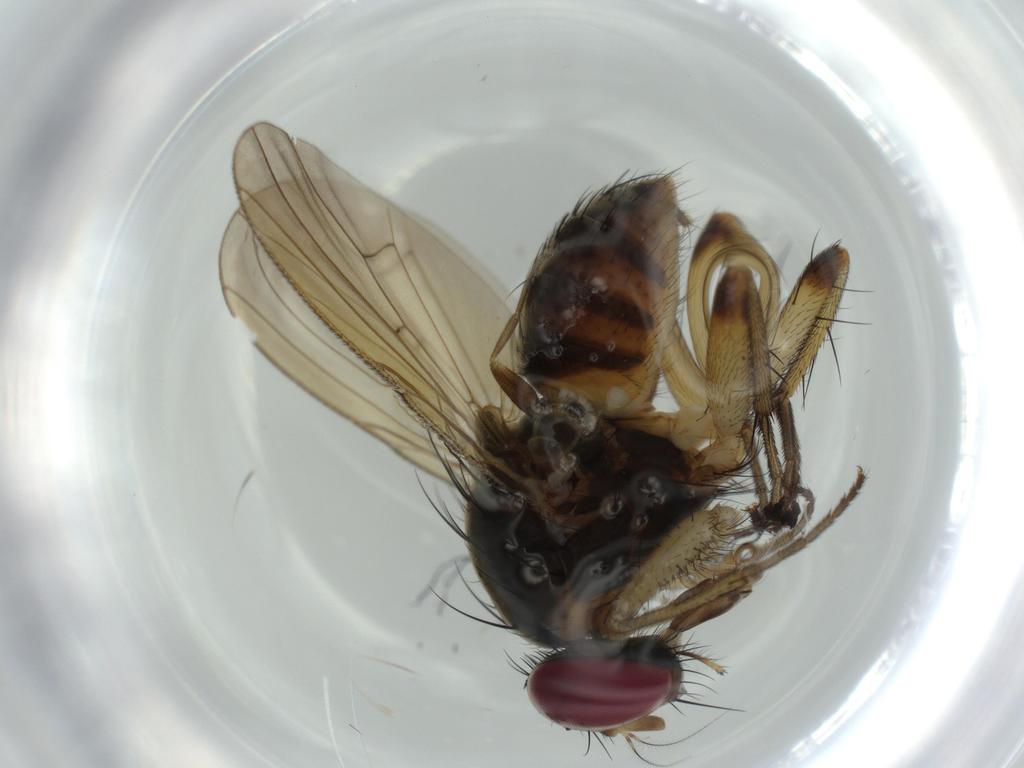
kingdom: Animalia
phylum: Arthropoda
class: Insecta
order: Diptera
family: Muscidae
